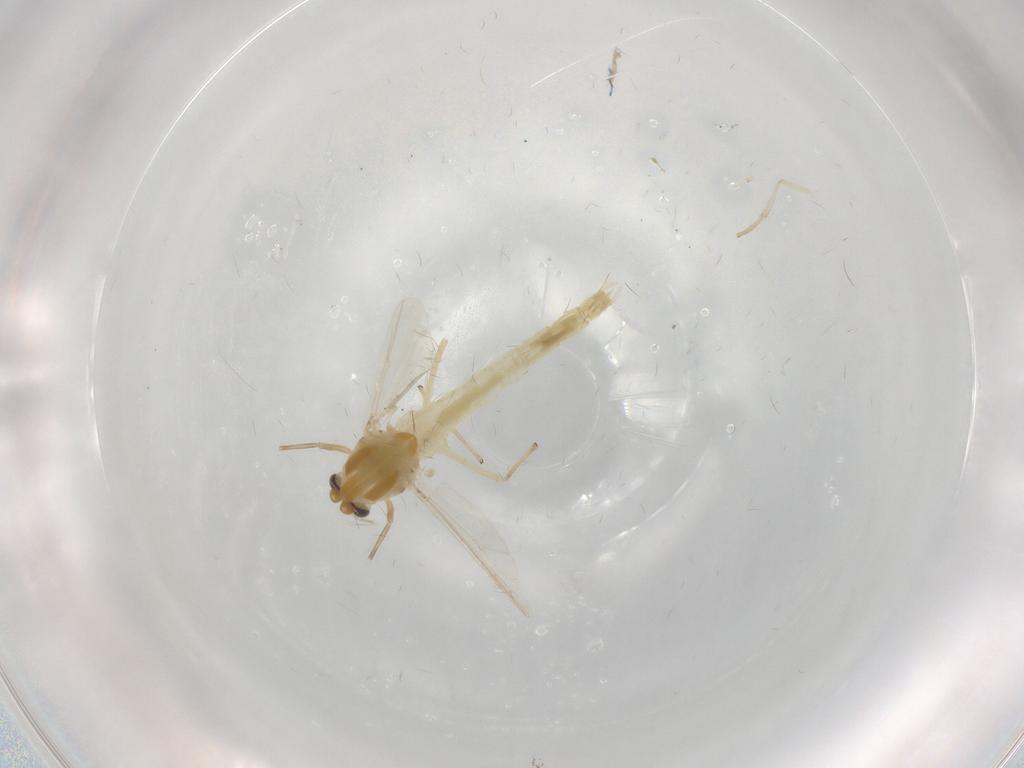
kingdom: Animalia
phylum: Arthropoda
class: Insecta
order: Diptera
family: Chironomidae
